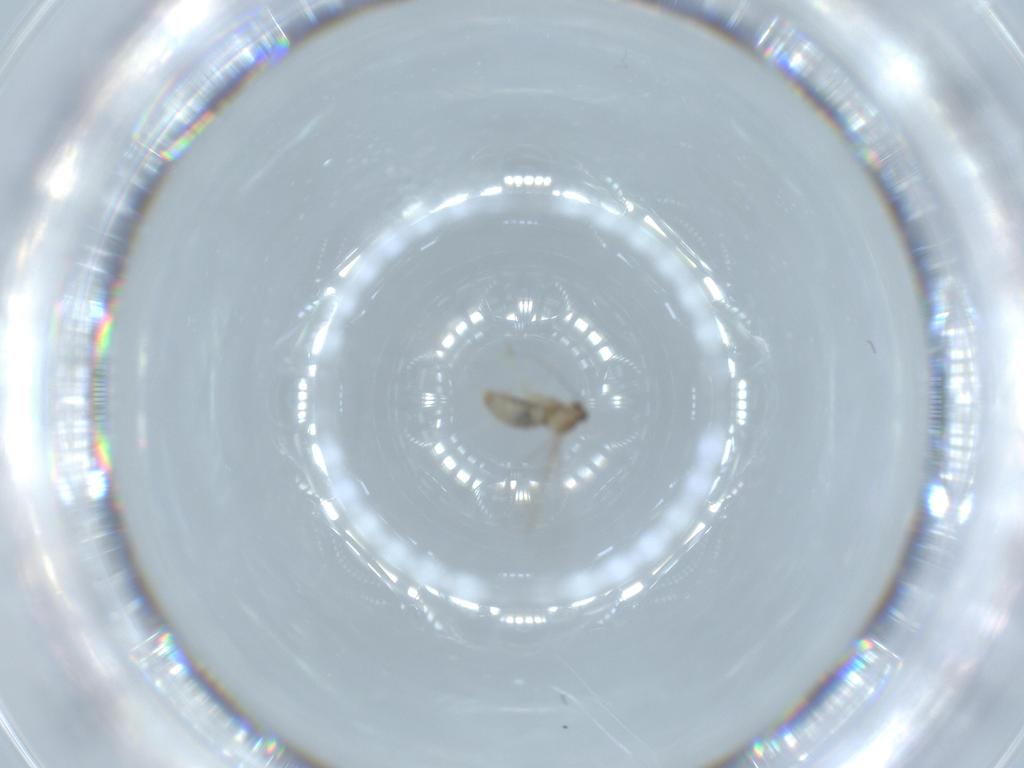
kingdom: Animalia
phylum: Arthropoda
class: Insecta
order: Diptera
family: Cecidomyiidae
